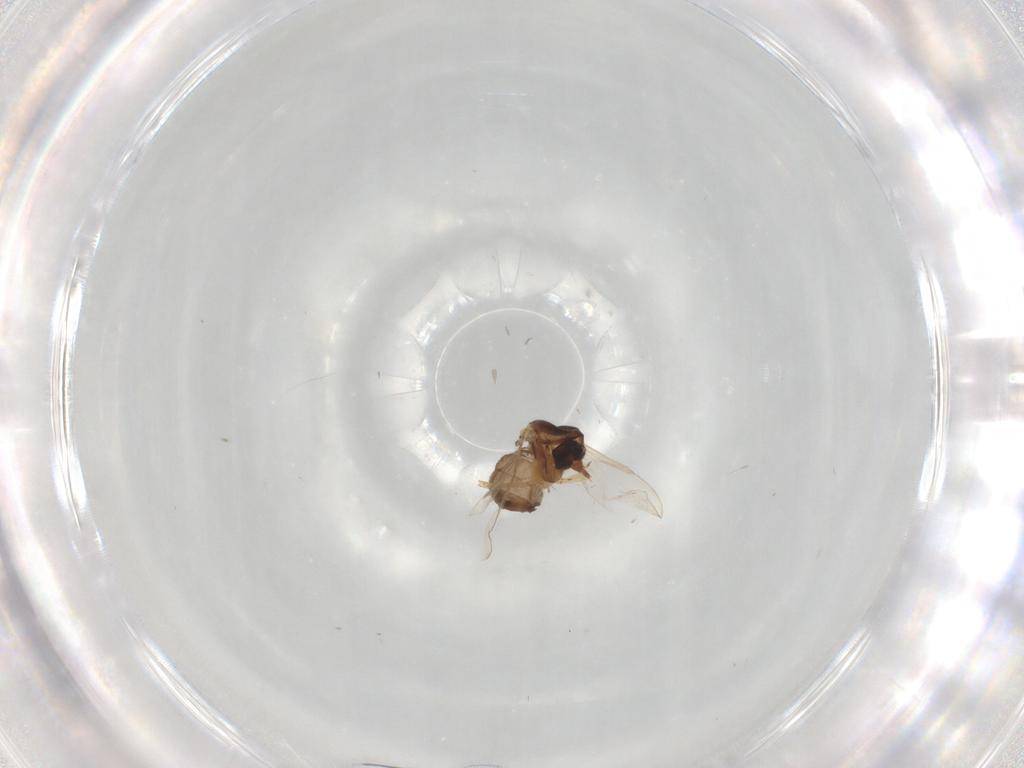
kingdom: Animalia
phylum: Arthropoda
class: Insecta
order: Diptera
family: Ceratopogonidae
